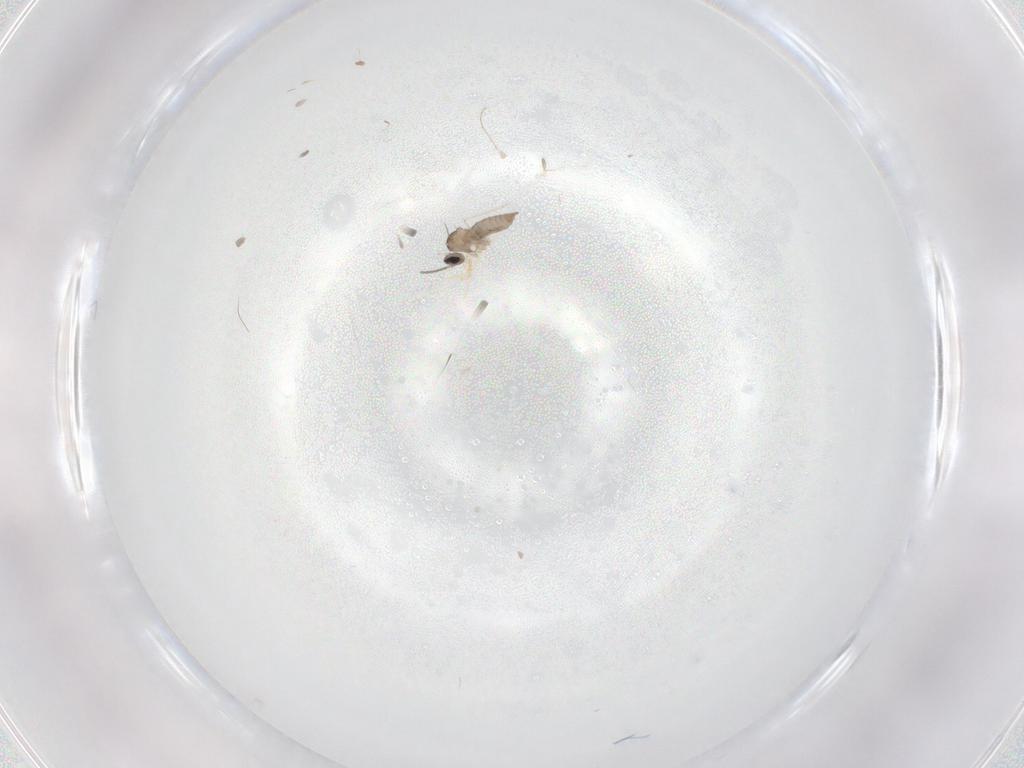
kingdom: Animalia
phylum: Arthropoda
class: Insecta
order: Diptera
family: Cecidomyiidae
